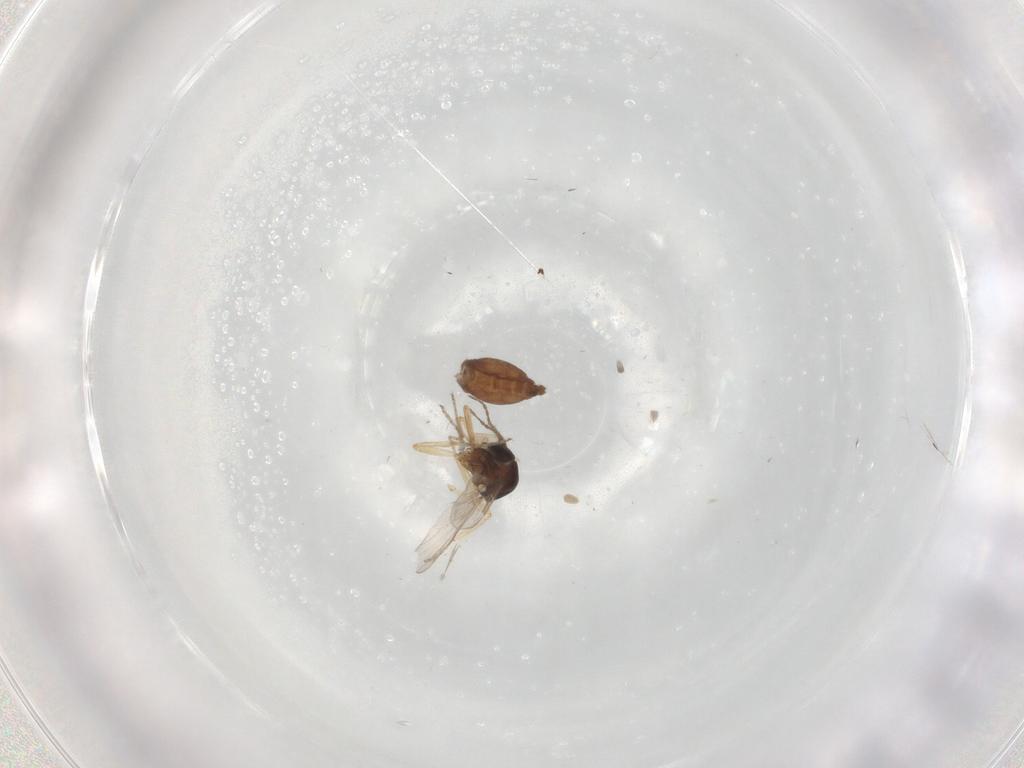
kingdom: Animalia
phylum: Arthropoda
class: Insecta
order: Diptera
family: Ceratopogonidae
